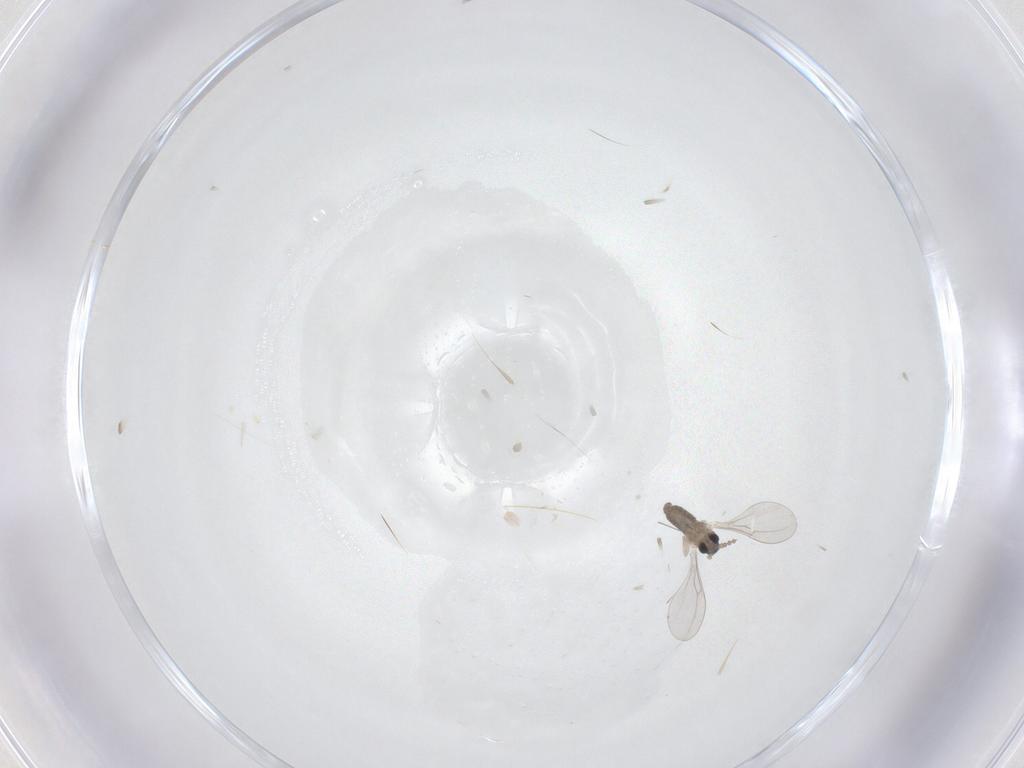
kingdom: Animalia
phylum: Arthropoda
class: Insecta
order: Diptera
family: Cecidomyiidae
